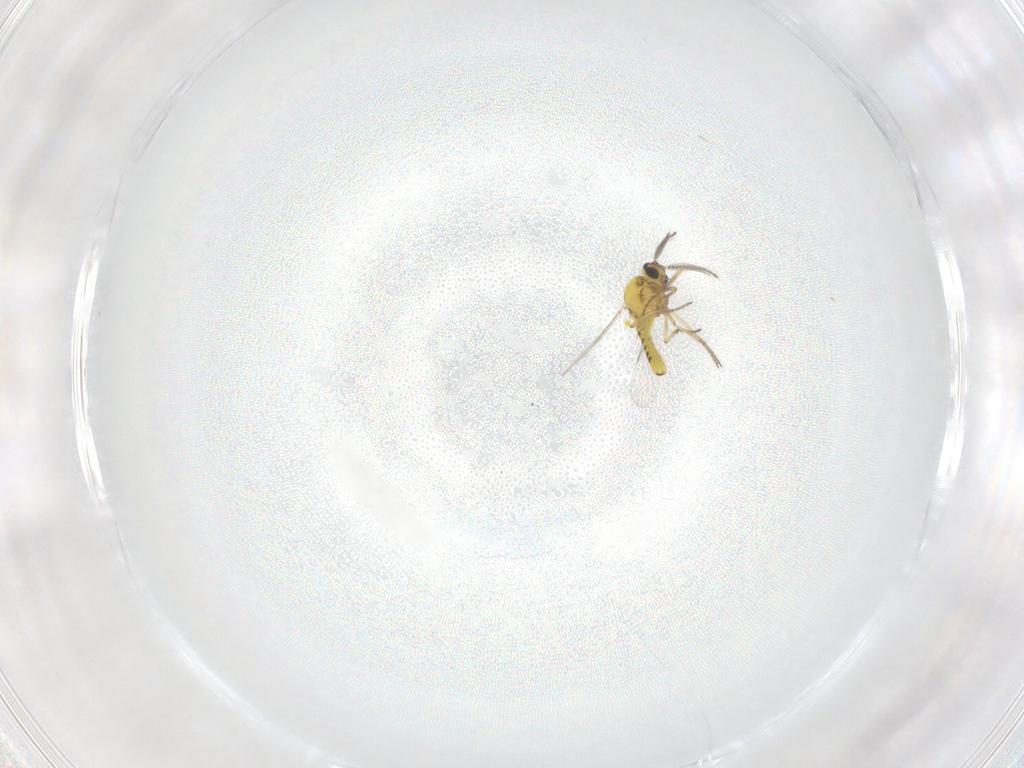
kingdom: Animalia
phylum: Arthropoda
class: Insecta
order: Diptera
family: Ceratopogonidae
